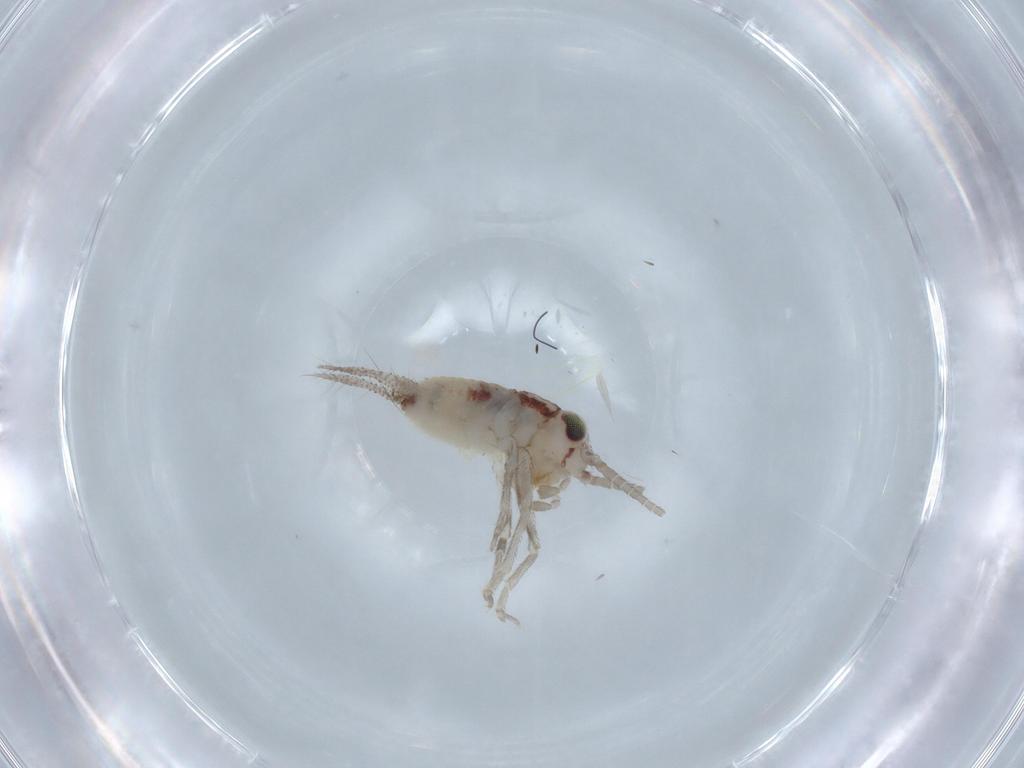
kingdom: Animalia
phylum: Arthropoda
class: Insecta
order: Orthoptera
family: Trigonidiidae
